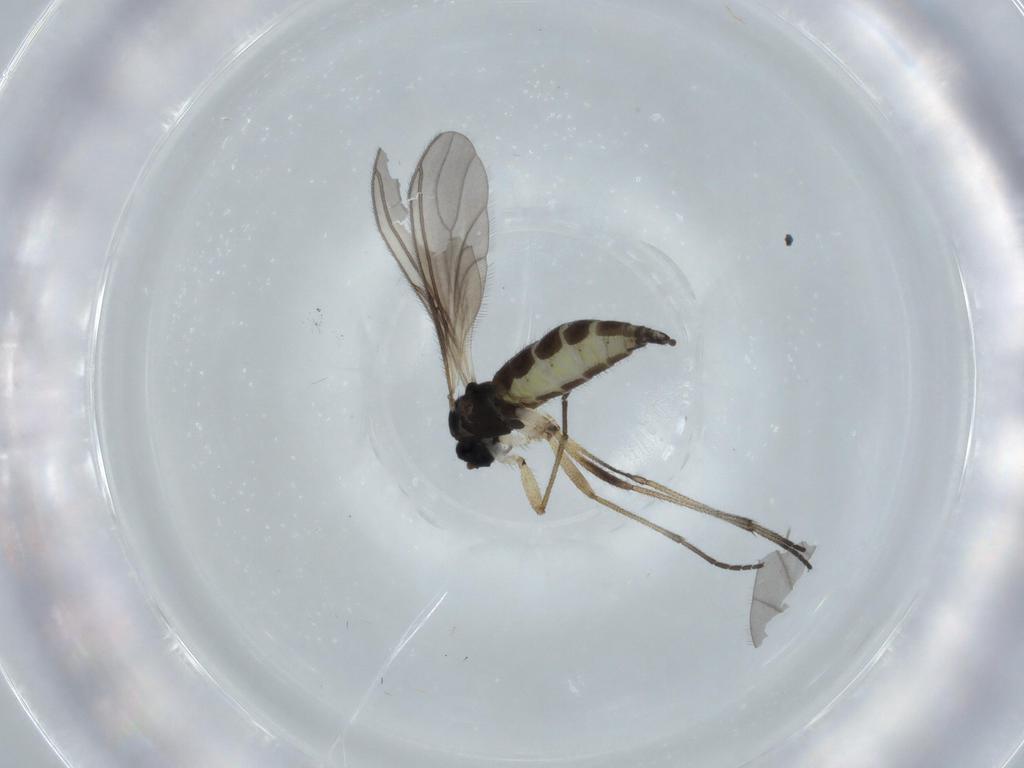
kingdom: Animalia
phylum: Arthropoda
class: Insecta
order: Diptera
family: Sciaridae
